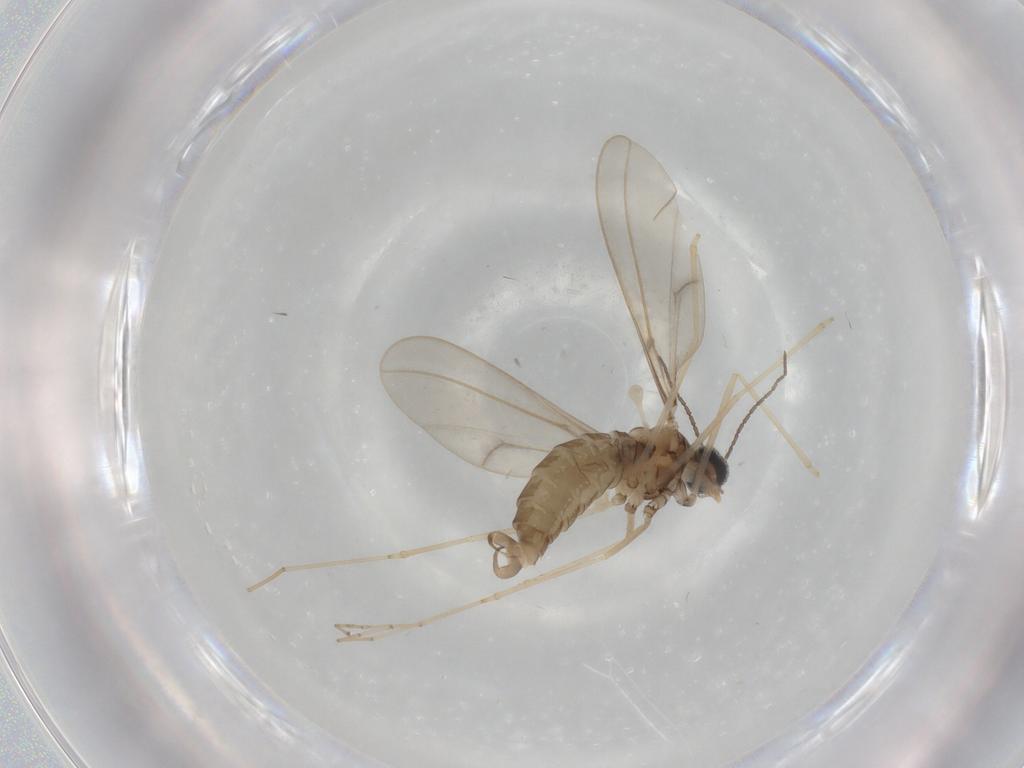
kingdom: Animalia
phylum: Arthropoda
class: Insecta
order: Diptera
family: Cecidomyiidae
